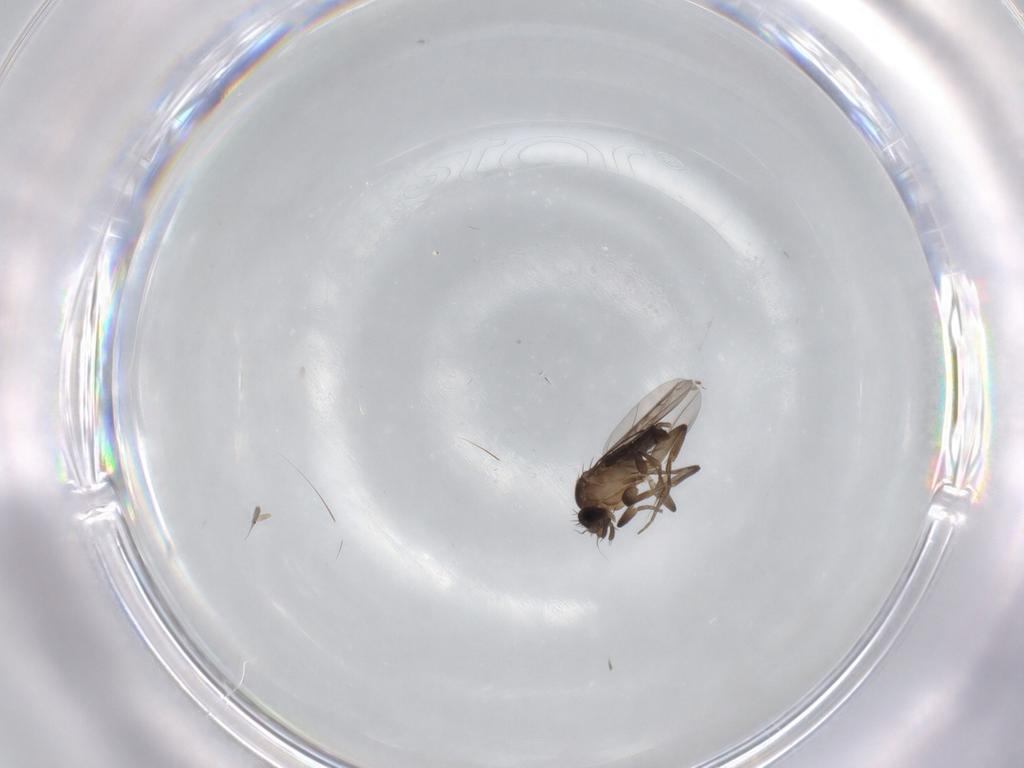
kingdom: Animalia
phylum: Arthropoda
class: Insecta
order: Diptera
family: Phoridae
